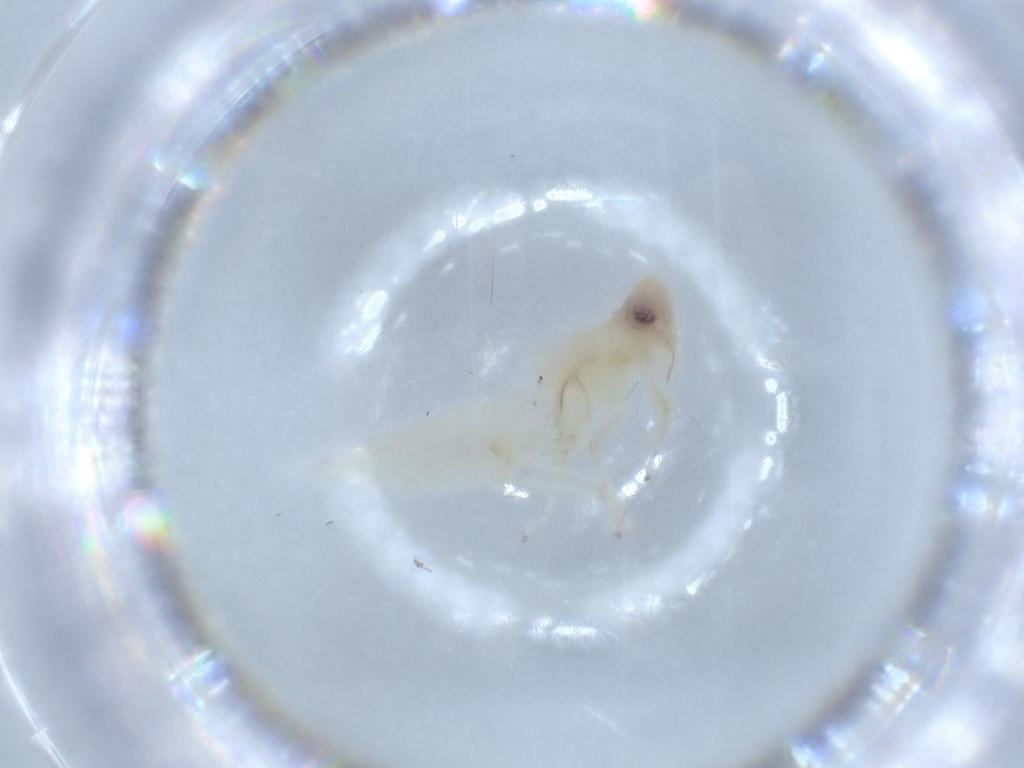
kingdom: Animalia
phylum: Arthropoda
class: Insecta
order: Hemiptera
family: Cicadellidae
